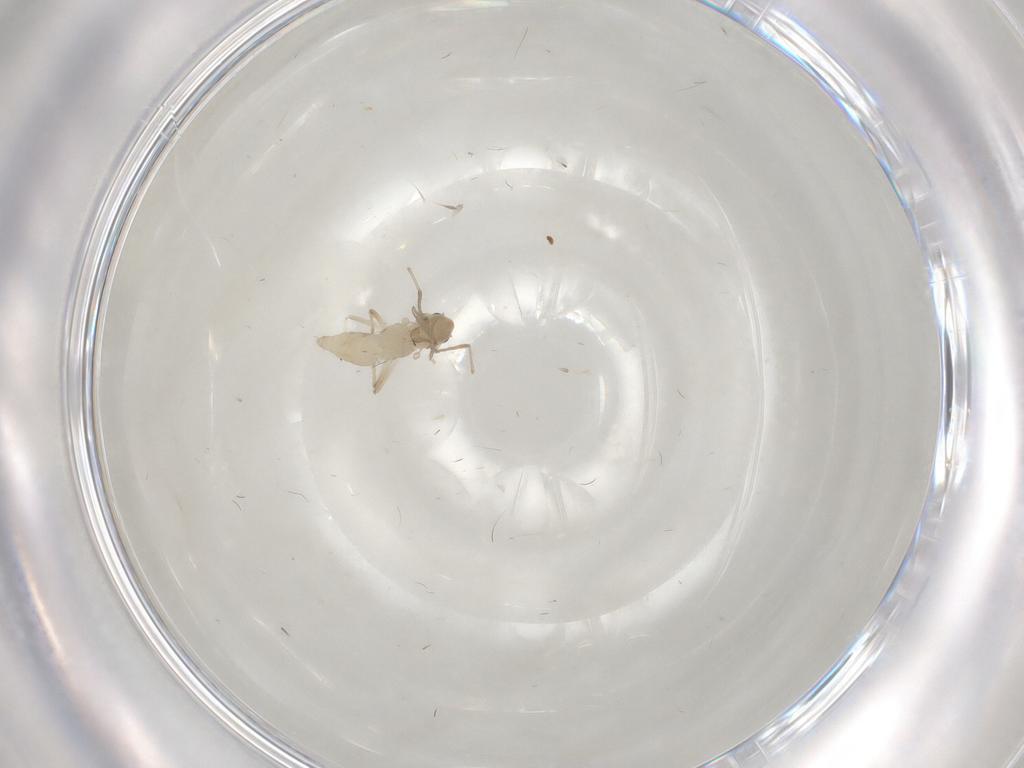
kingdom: Animalia
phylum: Arthropoda
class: Insecta
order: Diptera
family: Chironomidae
